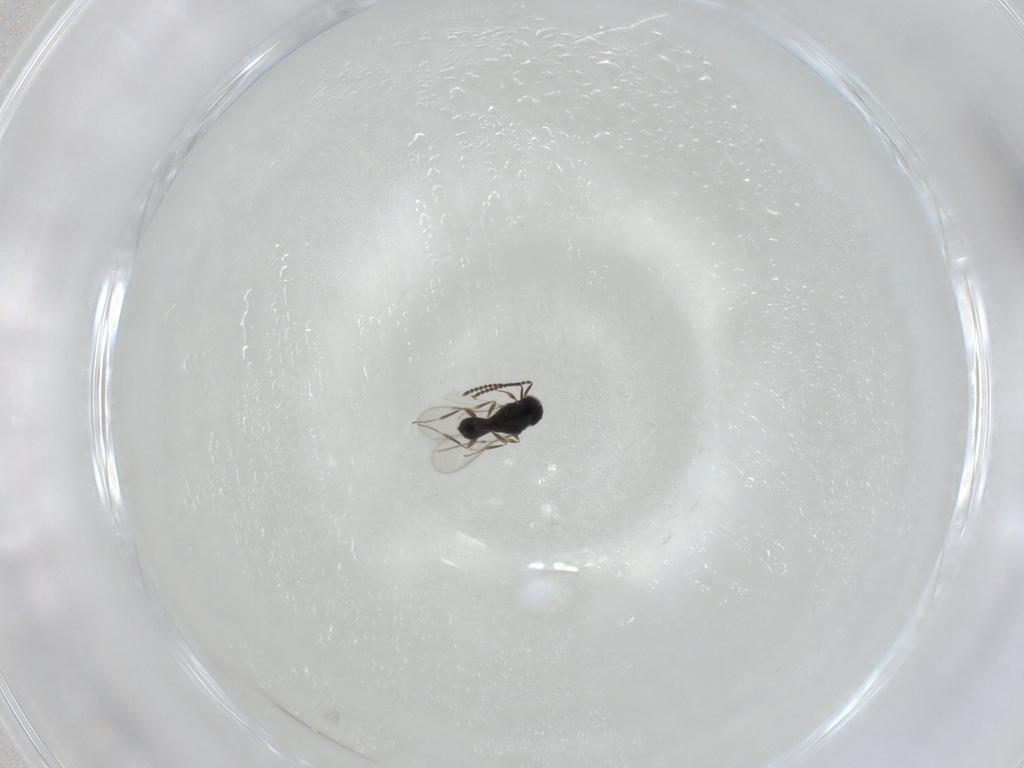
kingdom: Animalia
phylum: Arthropoda
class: Insecta
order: Hymenoptera
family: Scelionidae
